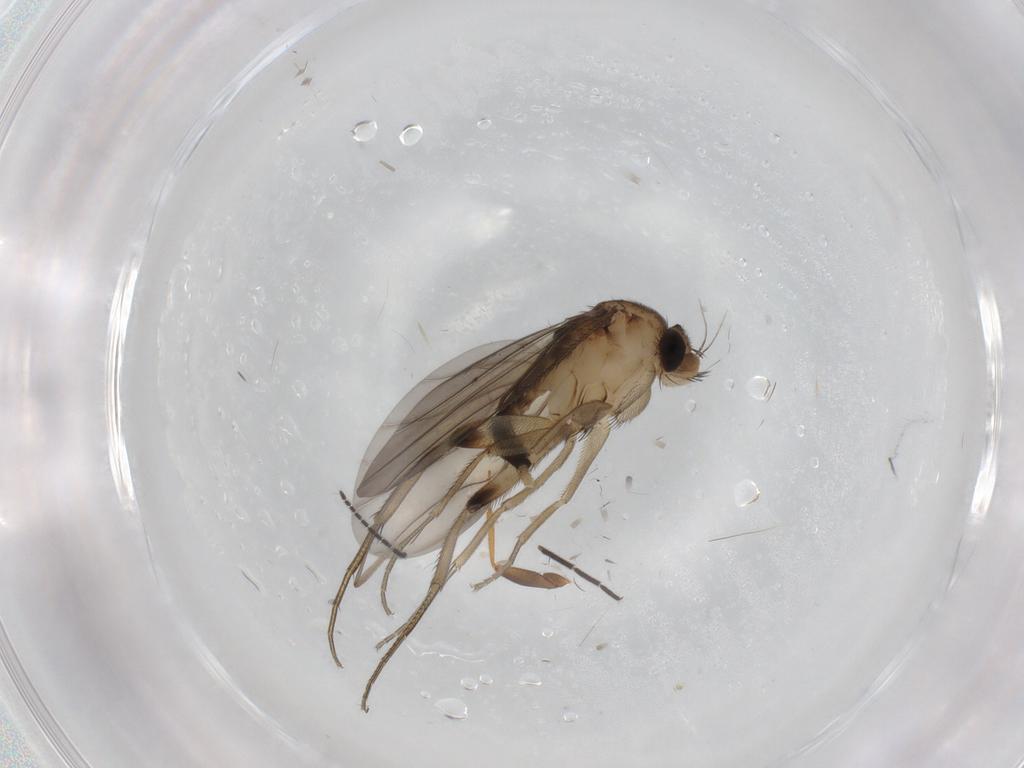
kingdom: Animalia
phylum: Arthropoda
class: Insecta
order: Diptera
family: Phoridae
